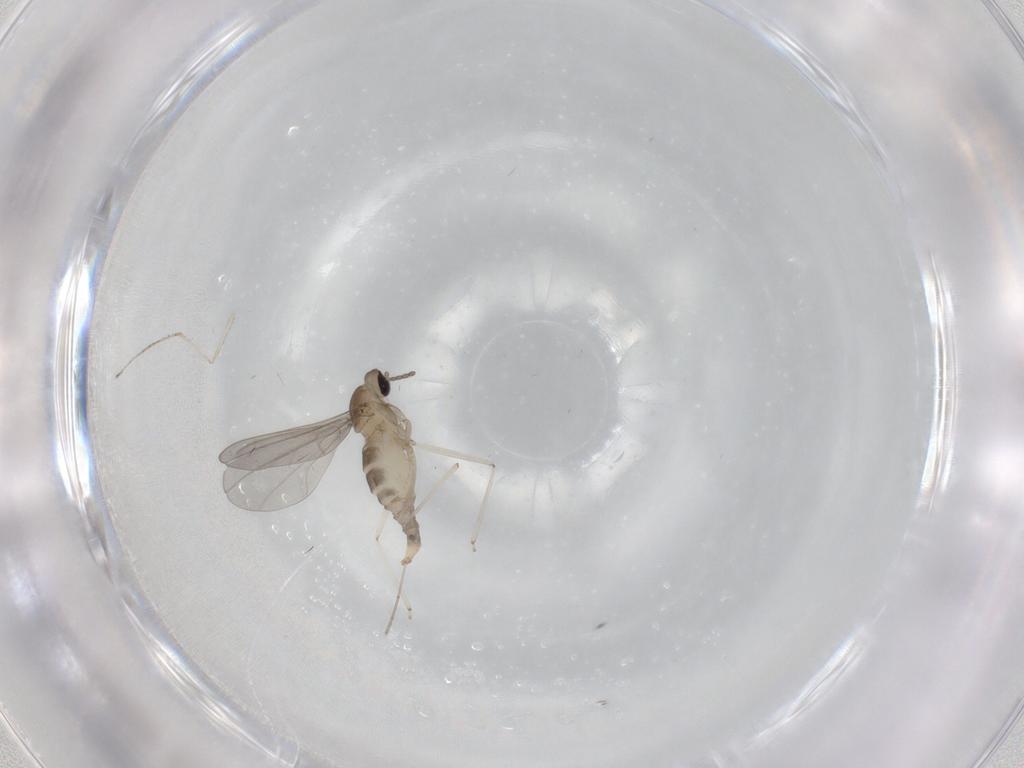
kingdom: Animalia
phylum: Arthropoda
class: Insecta
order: Diptera
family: Cecidomyiidae
